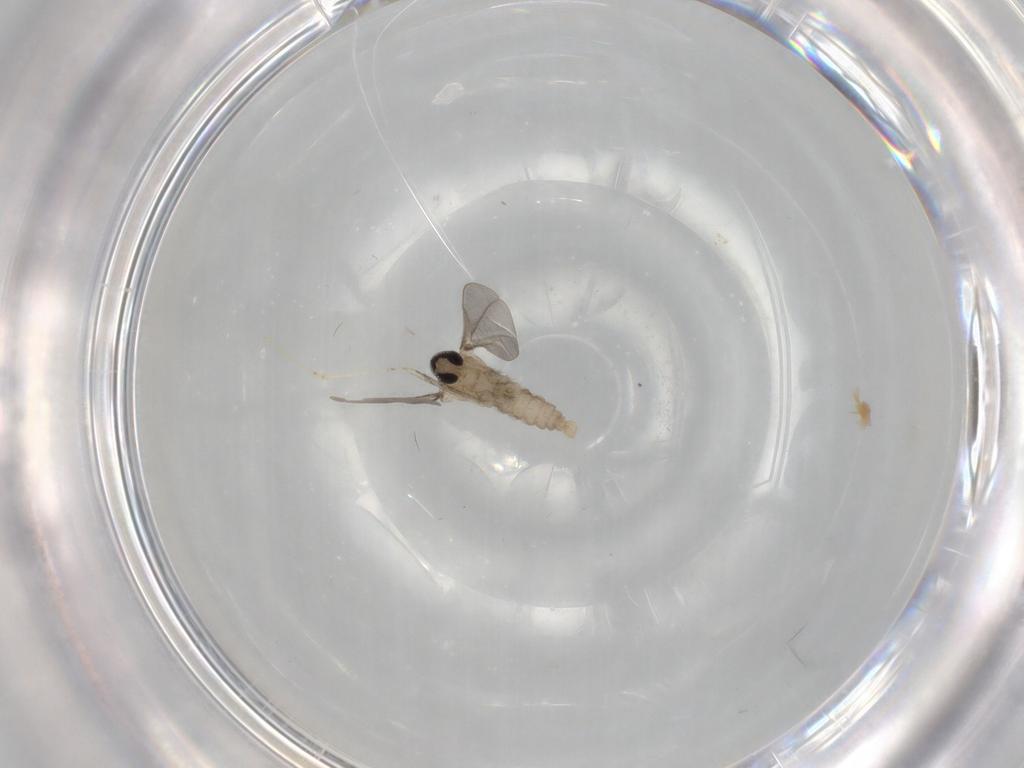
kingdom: Animalia
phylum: Arthropoda
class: Insecta
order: Diptera
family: Cecidomyiidae
